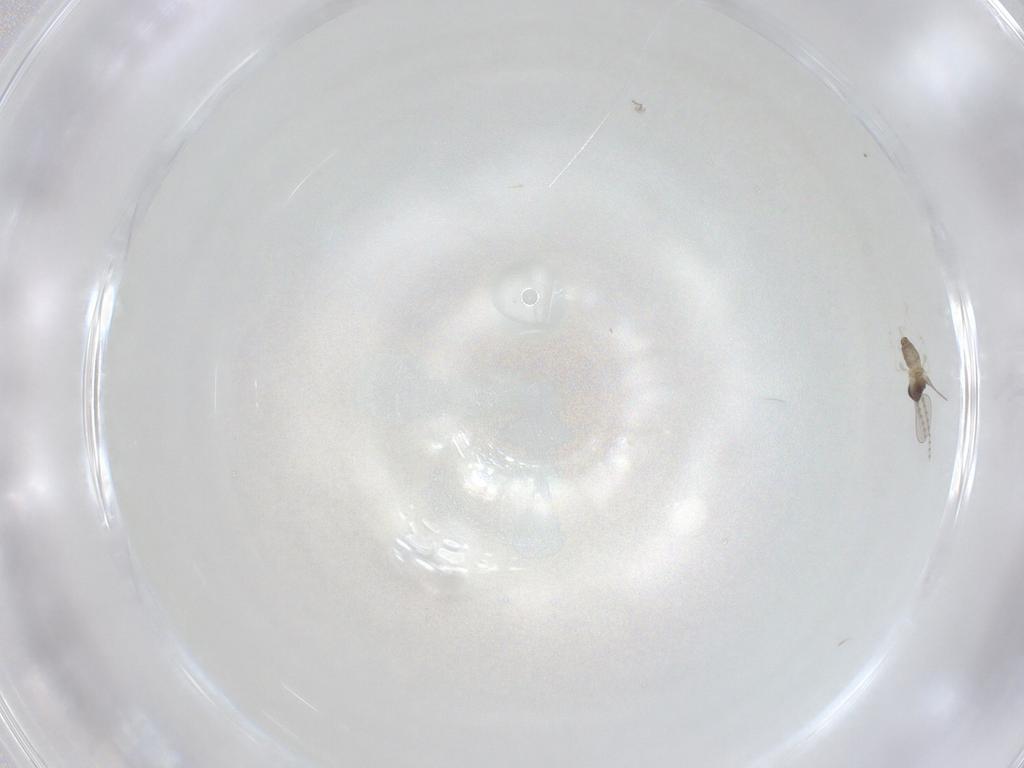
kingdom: Animalia
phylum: Arthropoda
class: Insecta
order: Diptera
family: Cecidomyiidae
